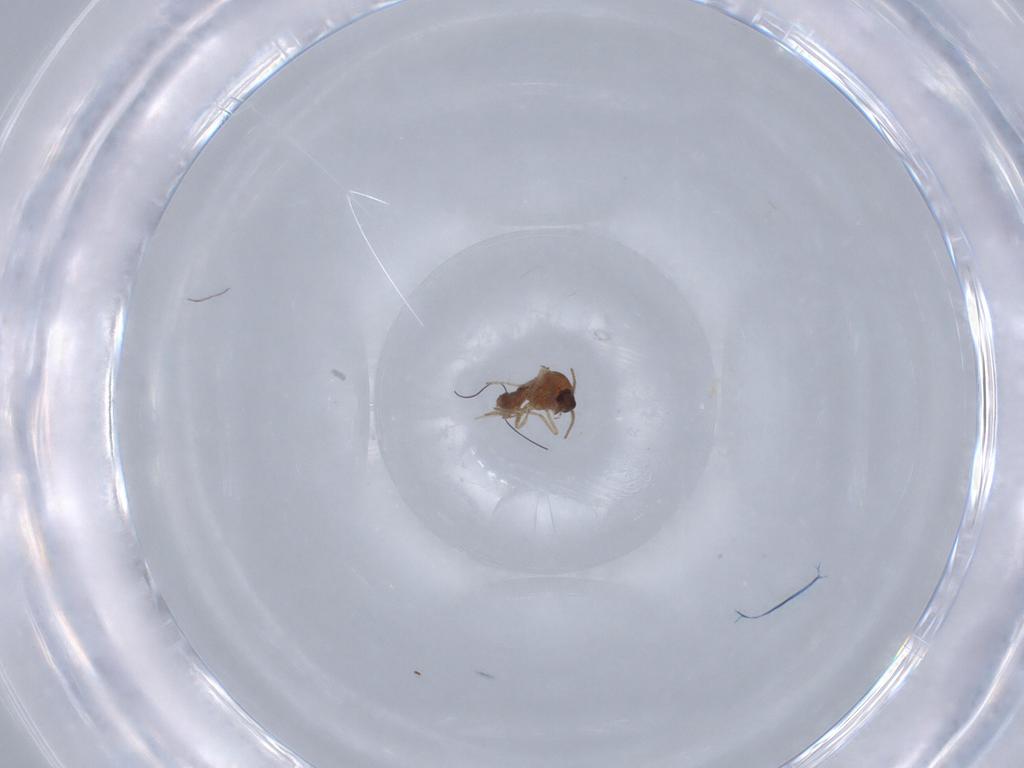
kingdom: Animalia
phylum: Arthropoda
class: Insecta
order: Diptera
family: Ceratopogonidae
